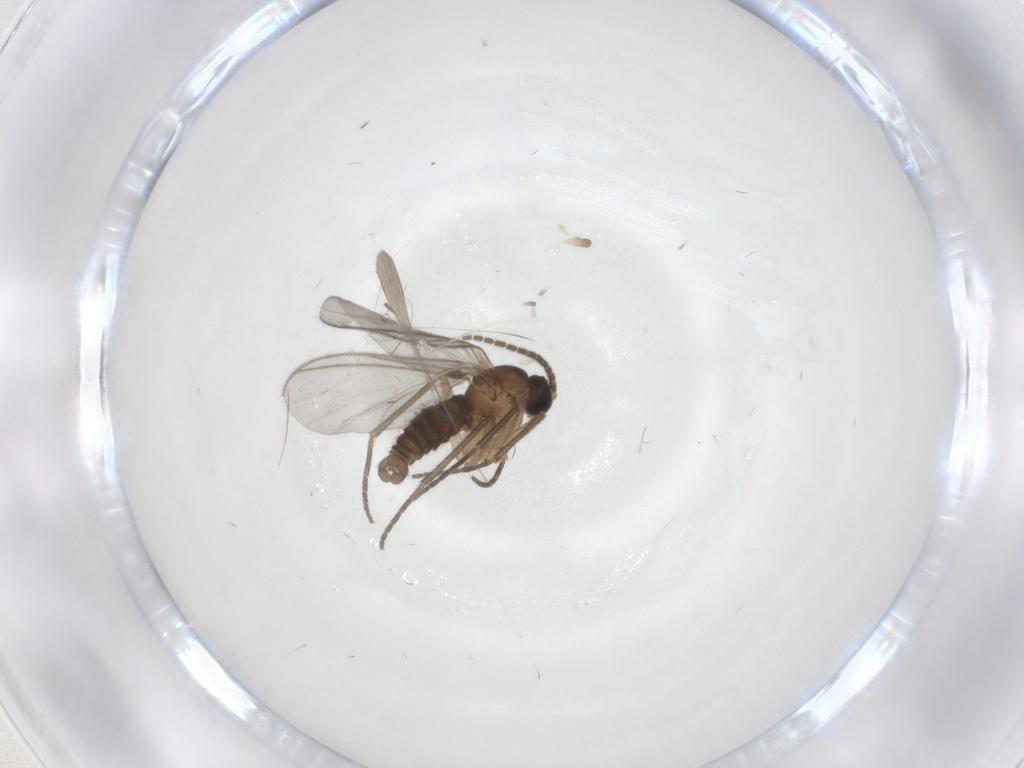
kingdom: Animalia
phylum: Arthropoda
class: Insecta
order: Diptera
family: Sciaridae
